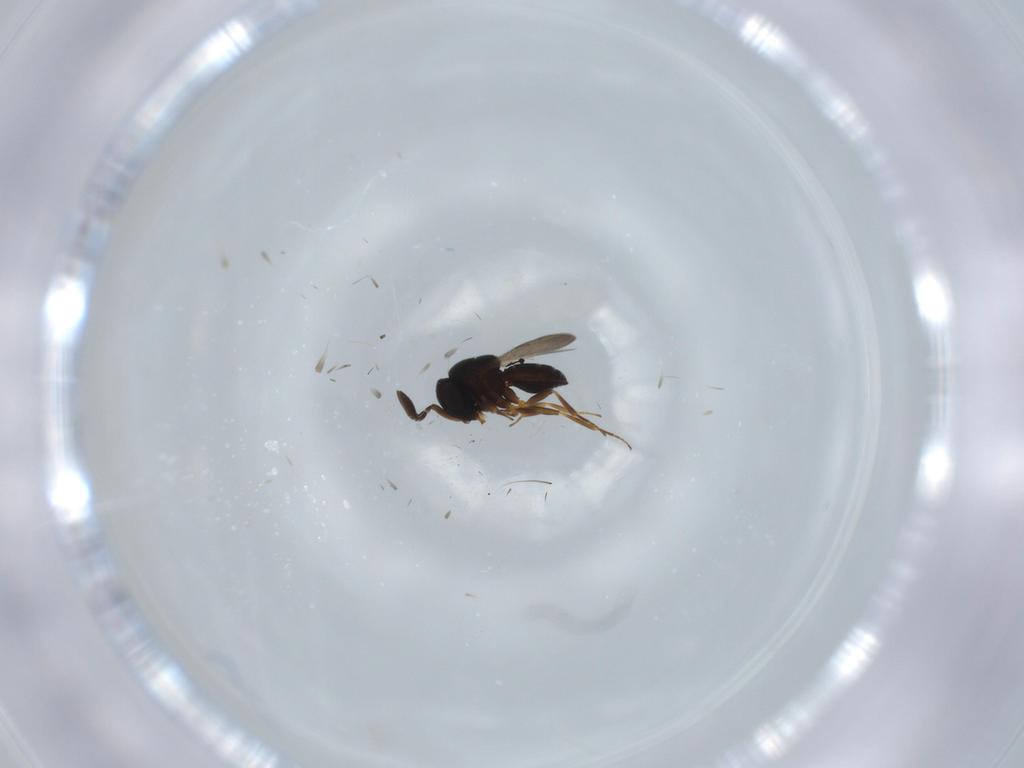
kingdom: Animalia
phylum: Arthropoda
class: Insecta
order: Hymenoptera
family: Scelionidae
